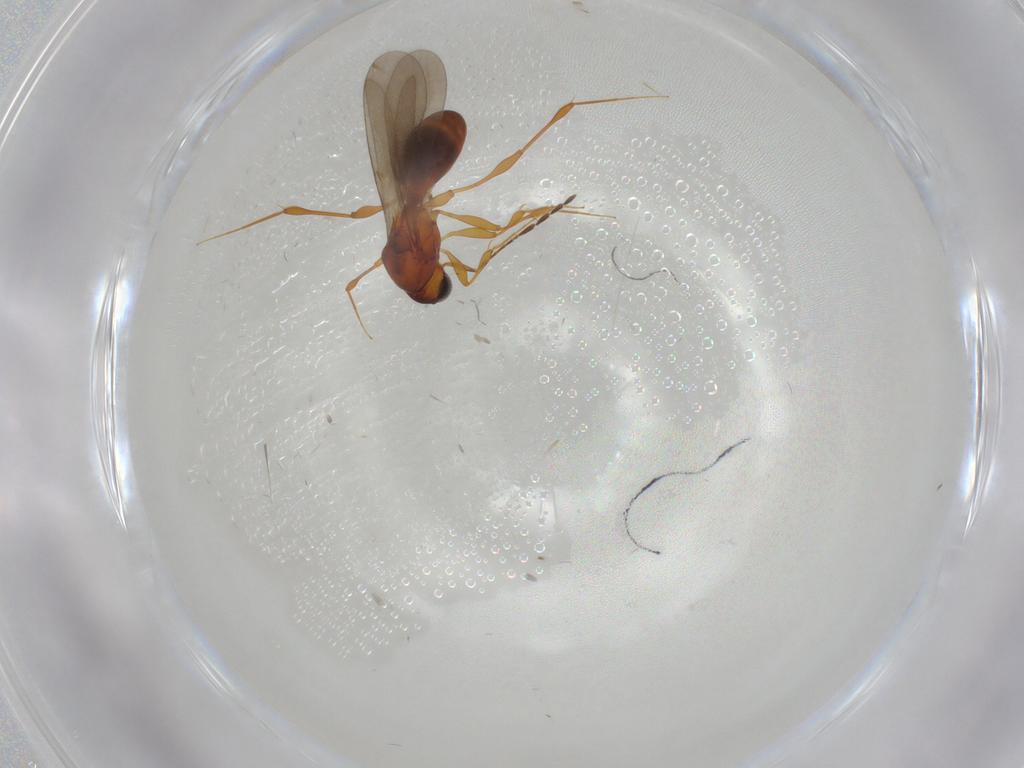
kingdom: Animalia
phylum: Arthropoda
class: Insecta
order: Hymenoptera
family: Platygastridae
